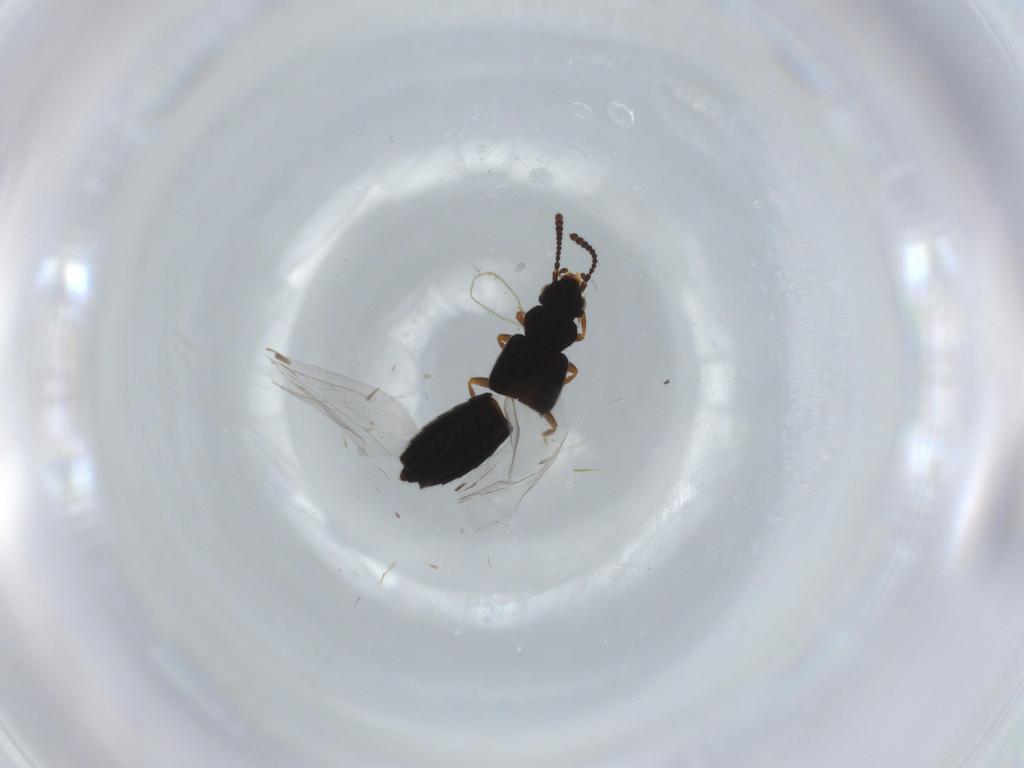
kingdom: Animalia
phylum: Arthropoda
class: Insecta
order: Coleoptera
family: Staphylinidae
